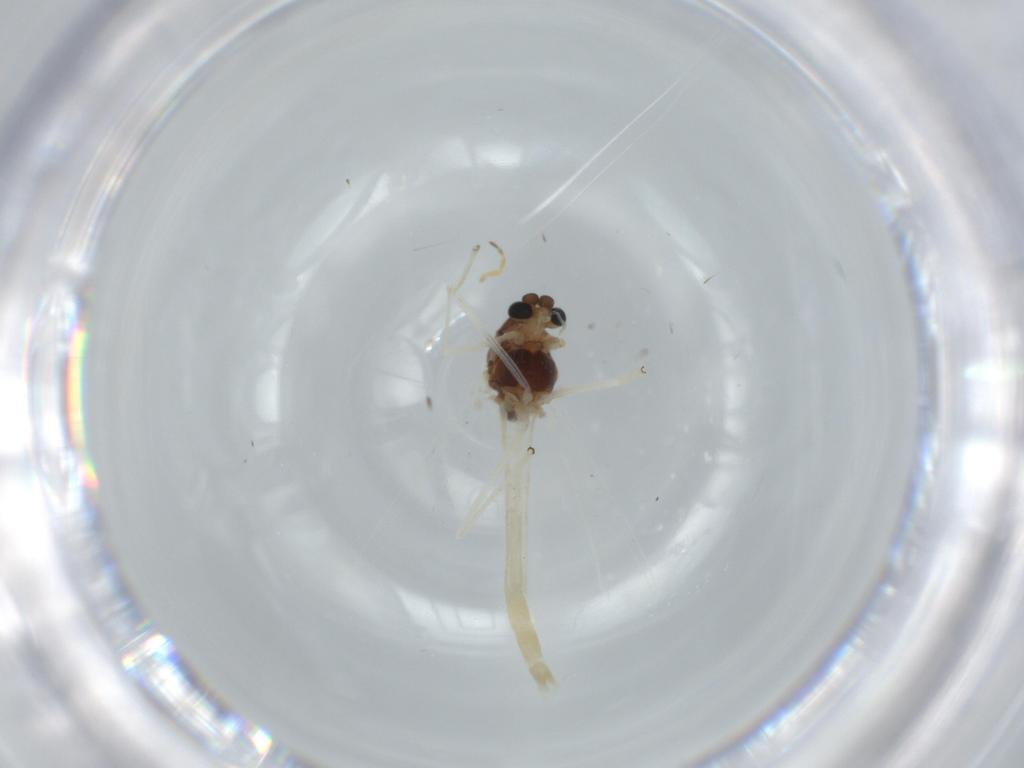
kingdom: Animalia
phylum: Arthropoda
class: Insecta
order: Diptera
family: Chironomidae
